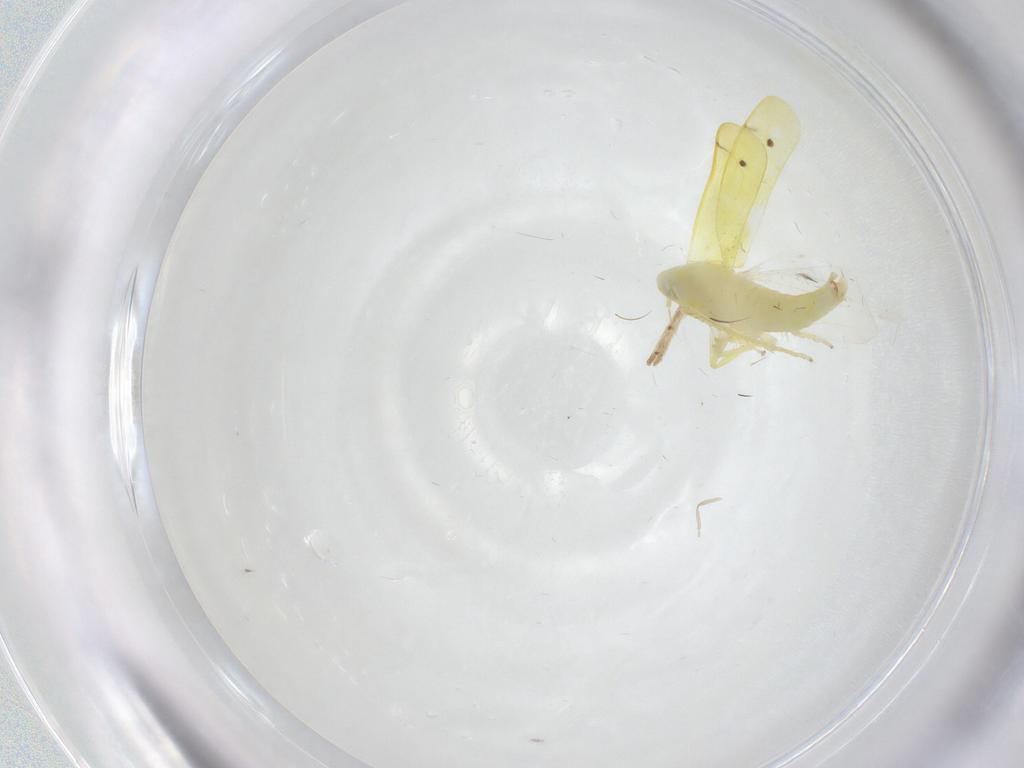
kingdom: Animalia
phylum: Arthropoda
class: Insecta
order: Hemiptera
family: Cicadellidae
